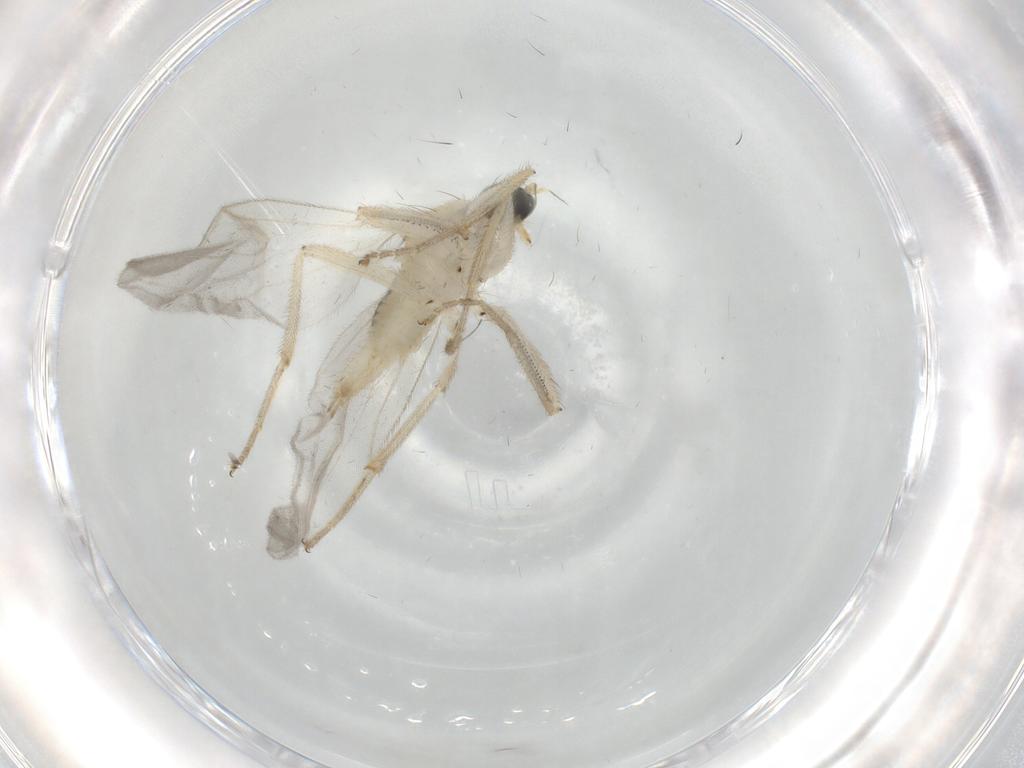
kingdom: Animalia
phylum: Arthropoda
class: Insecta
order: Diptera
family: Hybotidae
